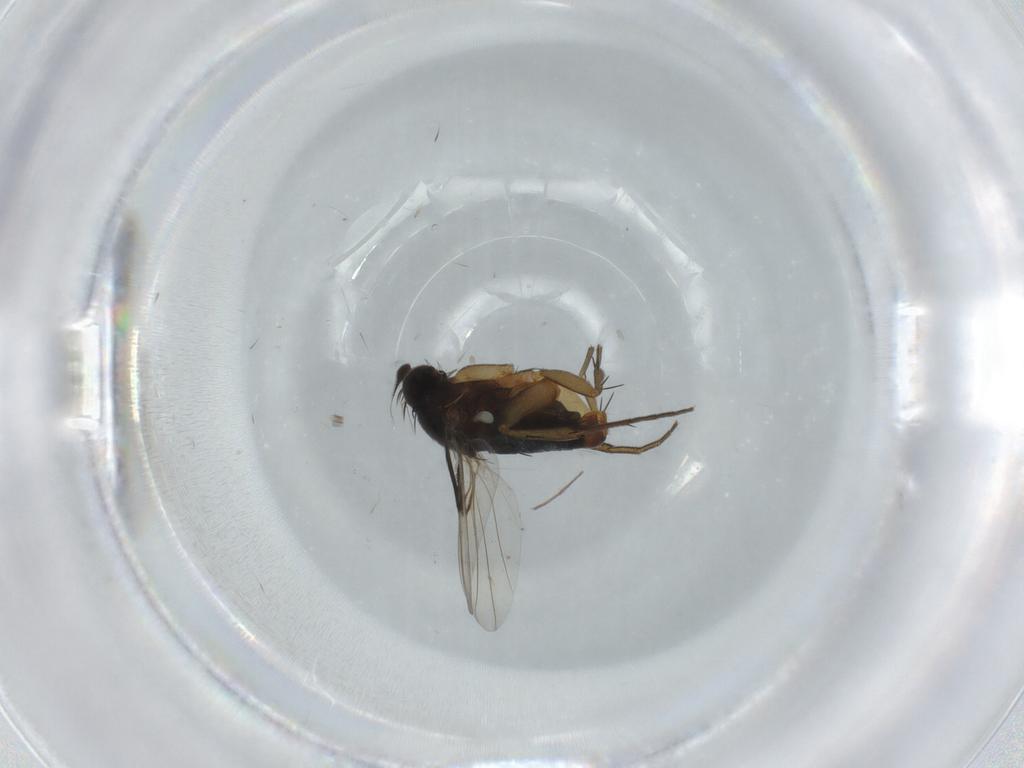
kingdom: Animalia
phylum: Arthropoda
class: Insecta
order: Diptera
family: Phoridae
